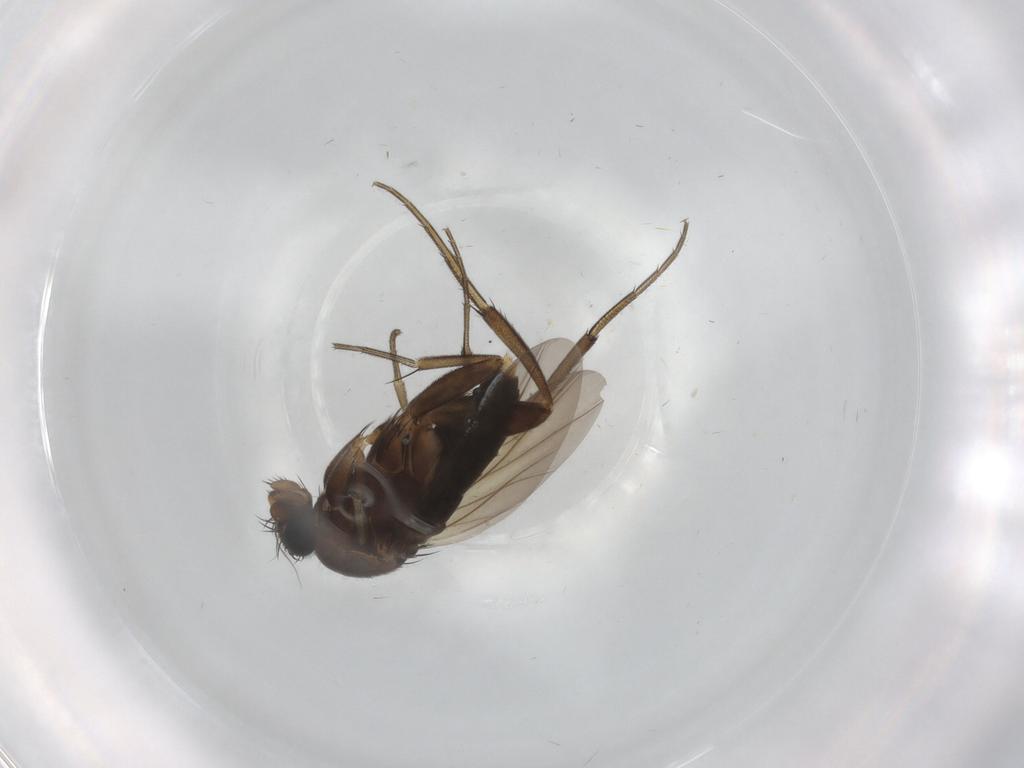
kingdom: Animalia
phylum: Arthropoda
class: Insecta
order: Diptera
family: Phoridae
